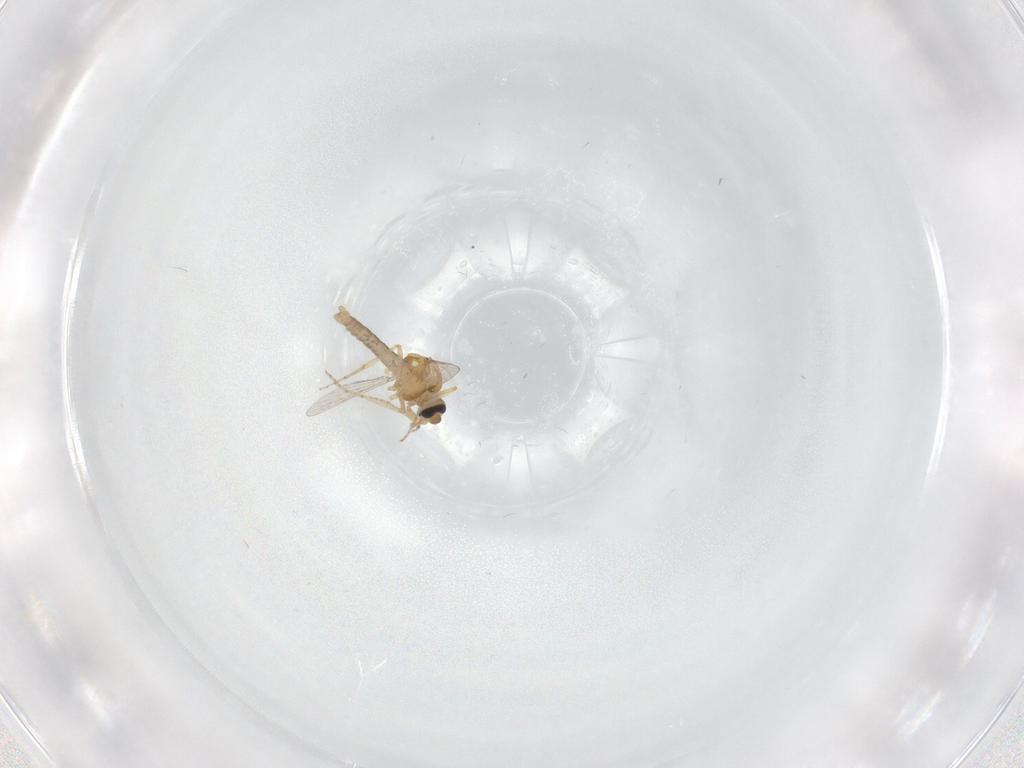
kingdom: Animalia
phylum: Arthropoda
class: Insecta
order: Diptera
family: Ceratopogonidae
